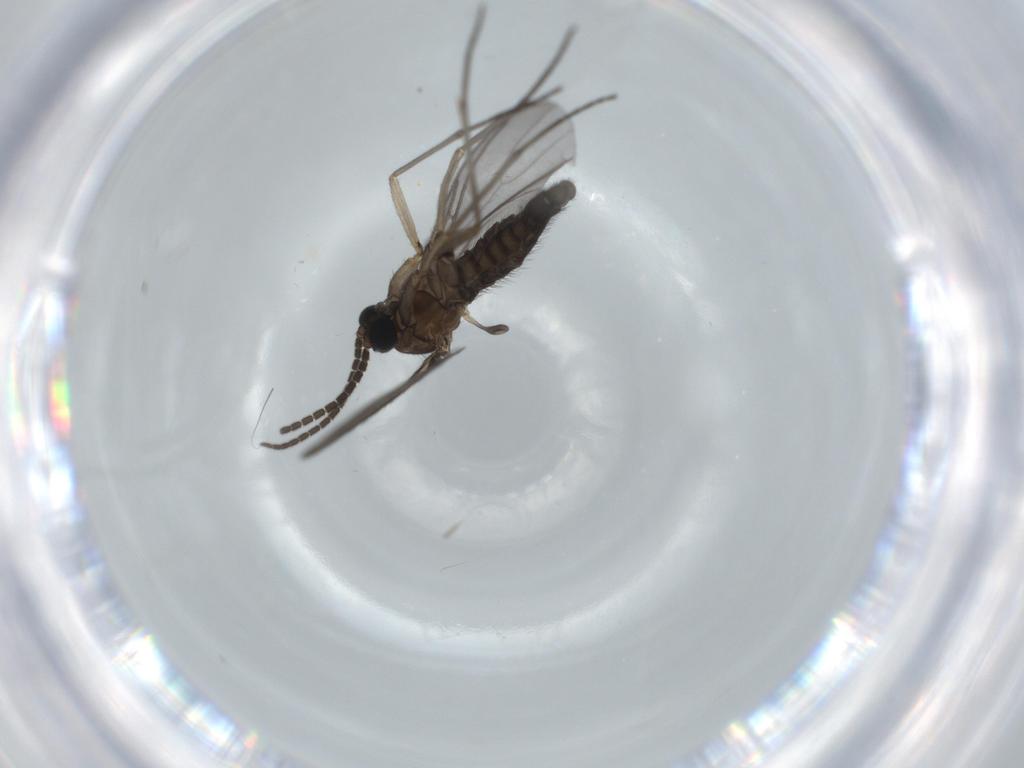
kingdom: Animalia
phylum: Arthropoda
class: Insecta
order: Diptera
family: Sciaridae
